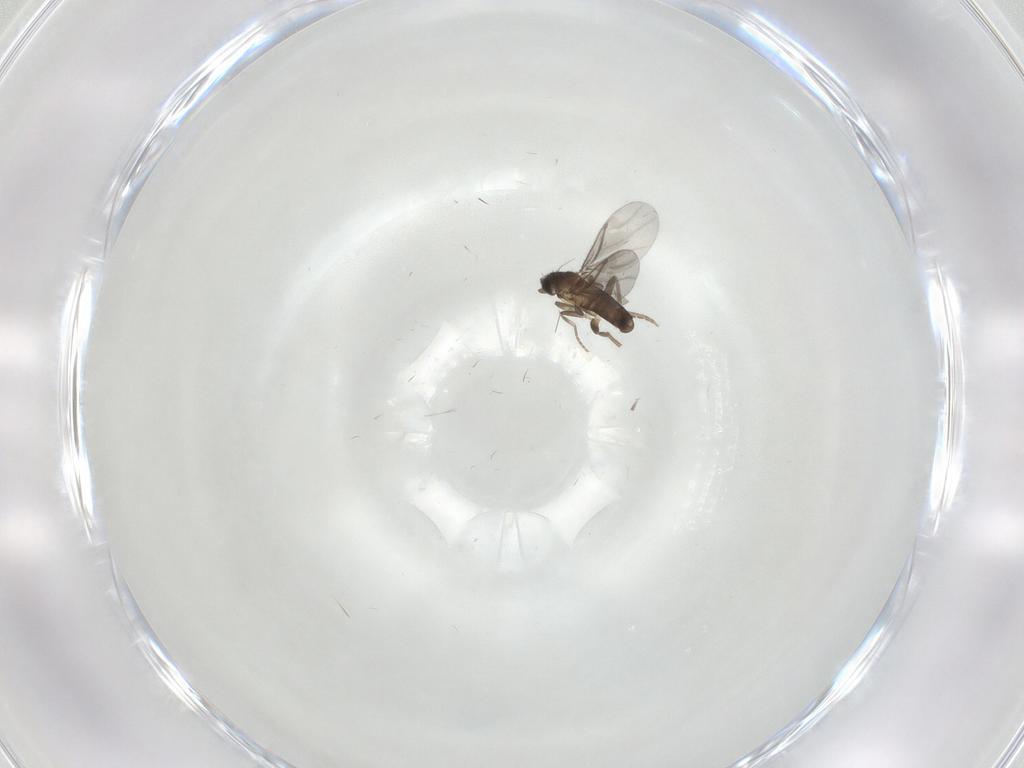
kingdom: Animalia
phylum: Arthropoda
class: Insecta
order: Diptera
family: Phoridae
